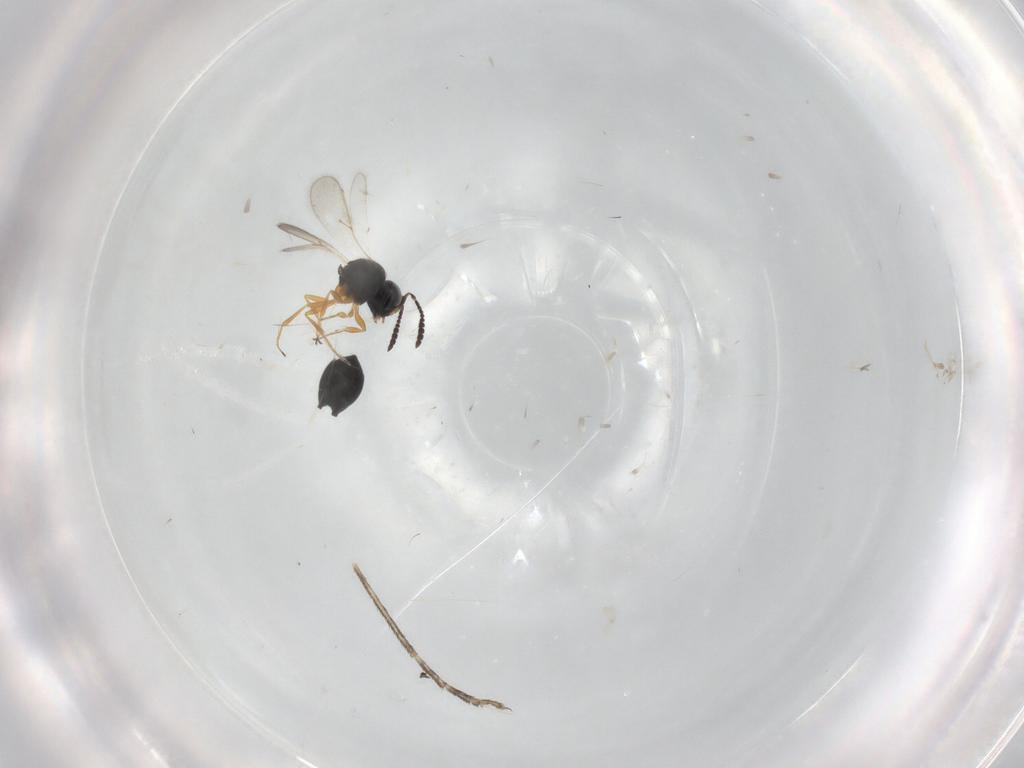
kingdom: Animalia
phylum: Arthropoda
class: Insecta
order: Hymenoptera
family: Scelionidae
